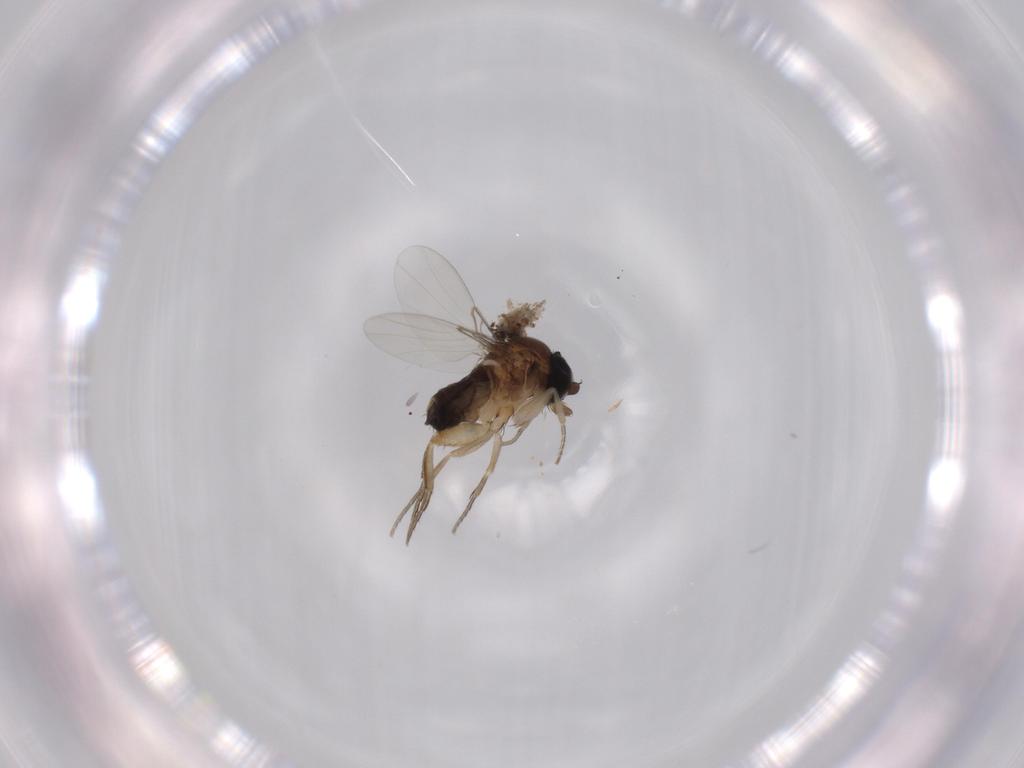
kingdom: Animalia
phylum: Arthropoda
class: Insecta
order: Diptera
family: Phoridae
